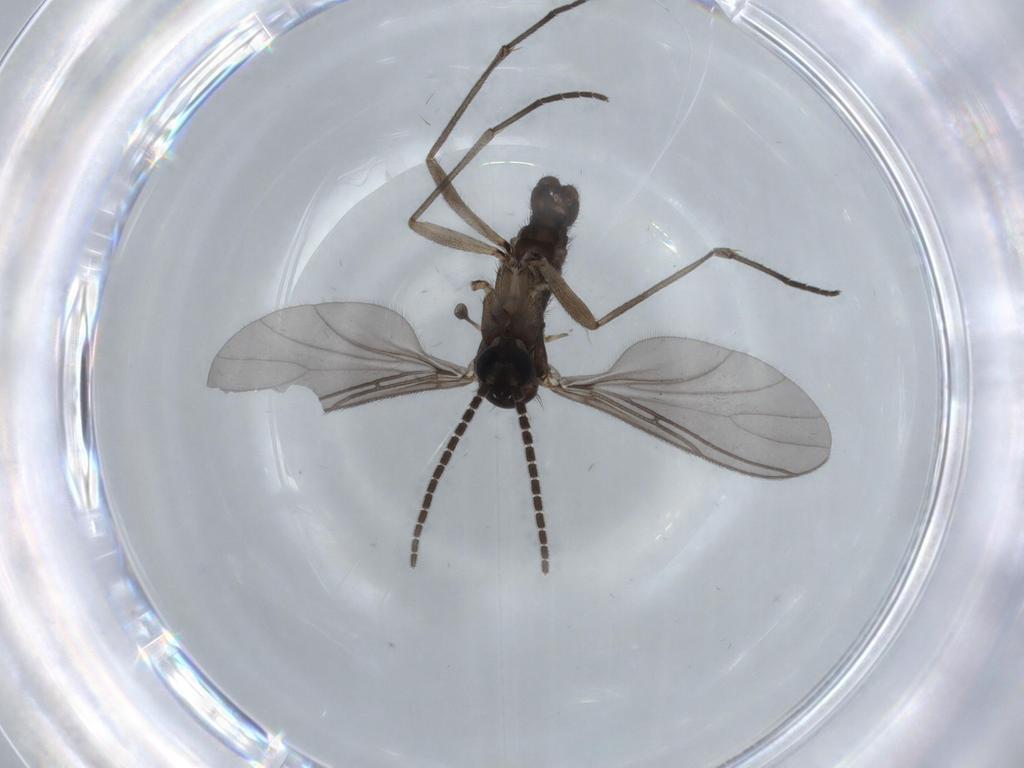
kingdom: Animalia
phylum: Arthropoda
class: Insecta
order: Diptera
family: Sciaridae
